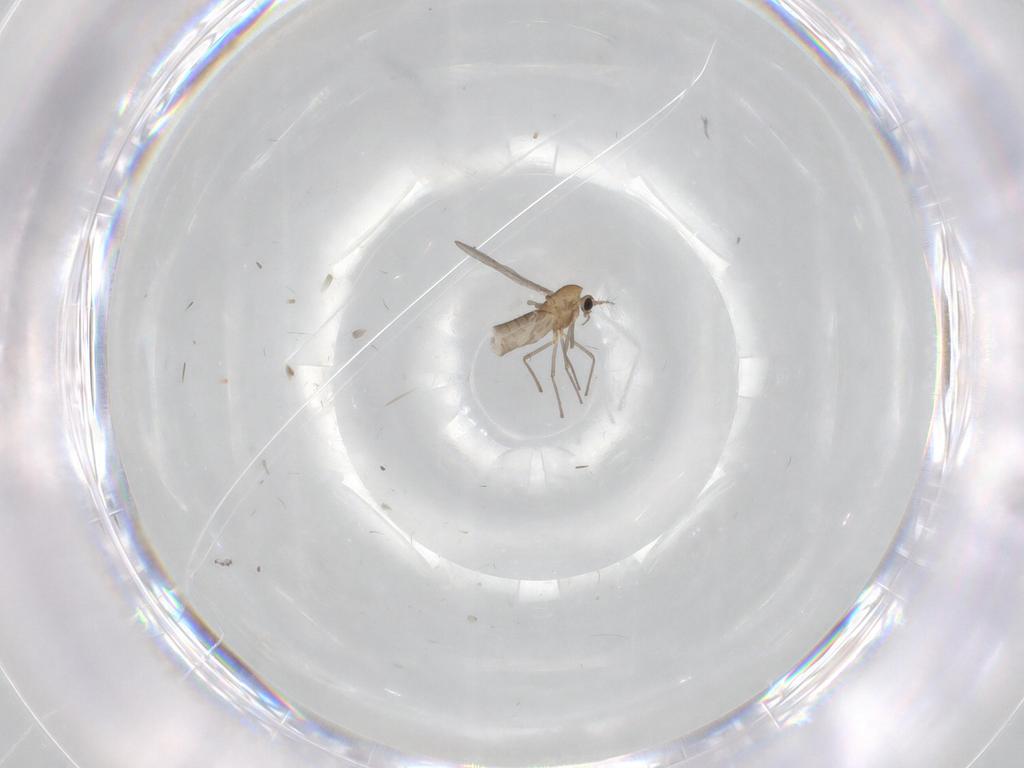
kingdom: Animalia
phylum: Arthropoda
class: Insecta
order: Diptera
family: Chironomidae
